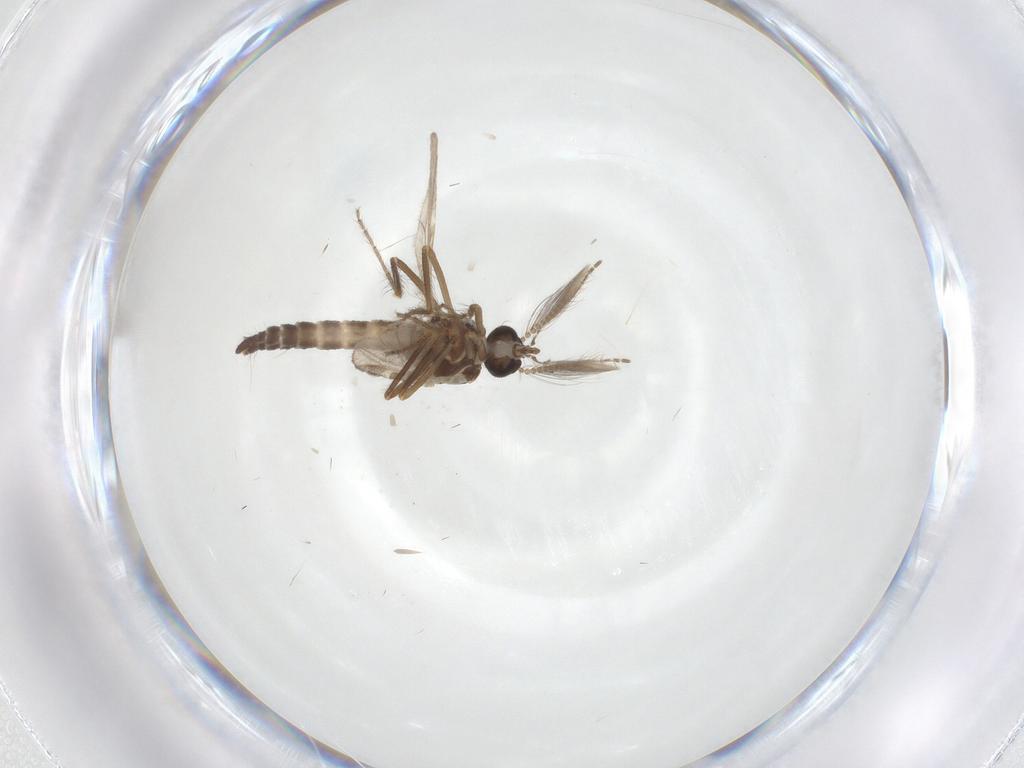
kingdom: Animalia
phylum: Arthropoda
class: Insecta
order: Diptera
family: Ceratopogonidae
